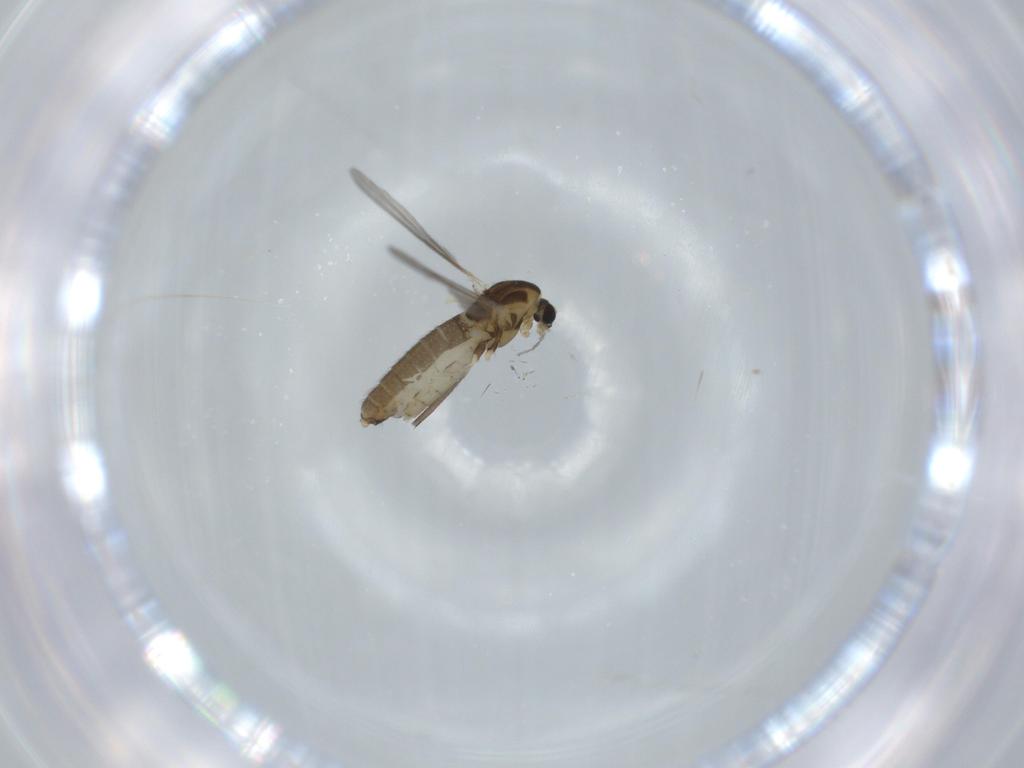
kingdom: Animalia
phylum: Arthropoda
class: Insecta
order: Diptera
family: Chironomidae
